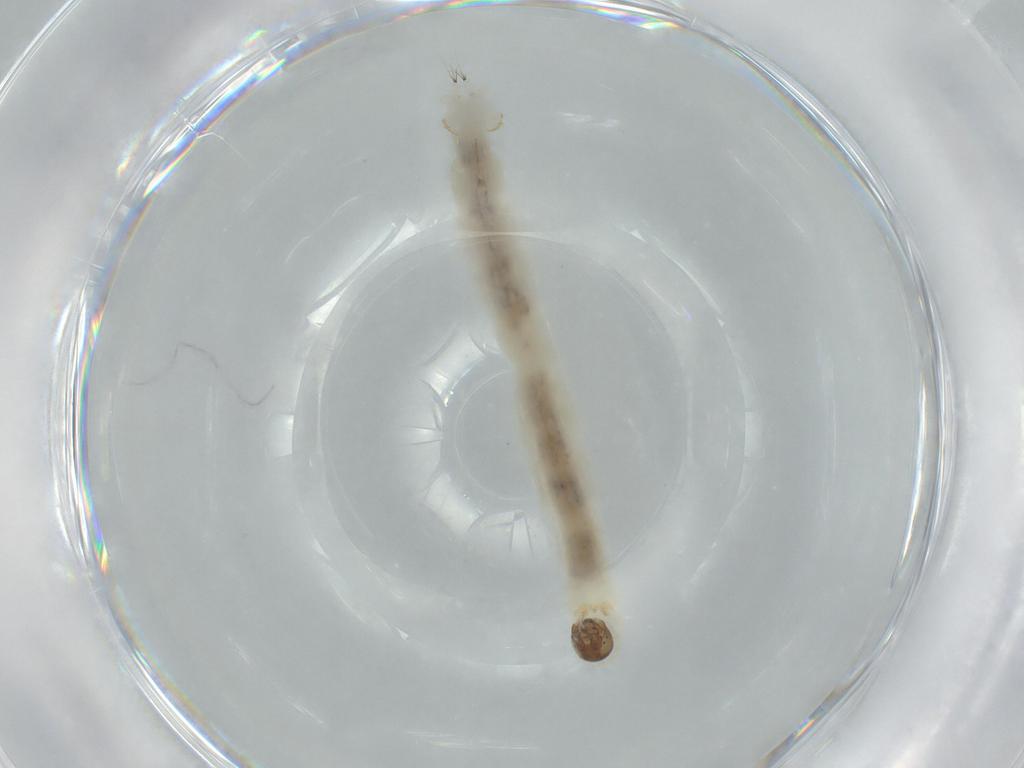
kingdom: Animalia
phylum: Arthropoda
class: Insecta
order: Diptera
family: Chironomidae
